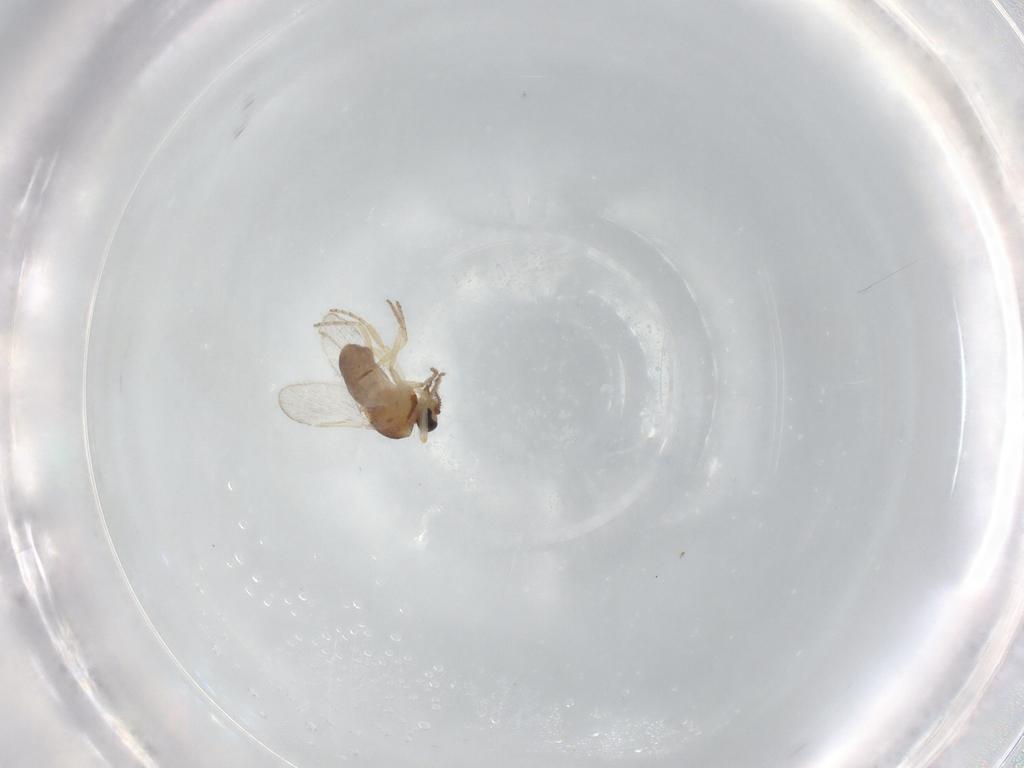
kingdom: Animalia
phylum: Arthropoda
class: Insecta
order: Diptera
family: Ceratopogonidae
